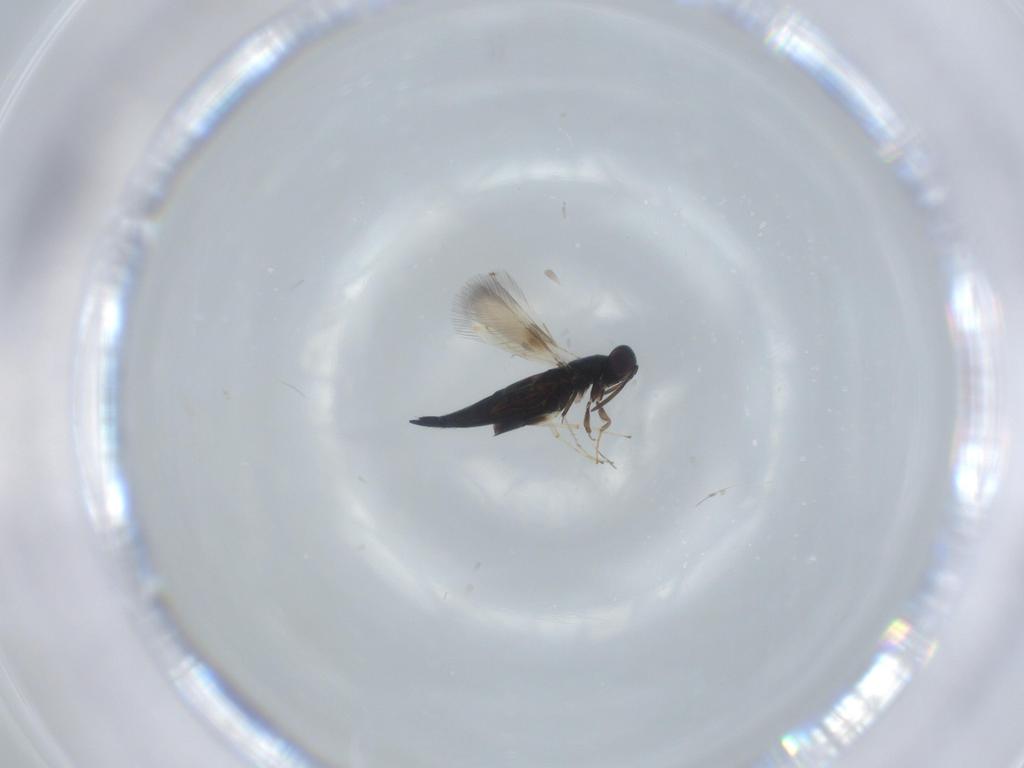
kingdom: Animalia
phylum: Arthropoda
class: Insecta
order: Hymenoptera
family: Signiphoridae
